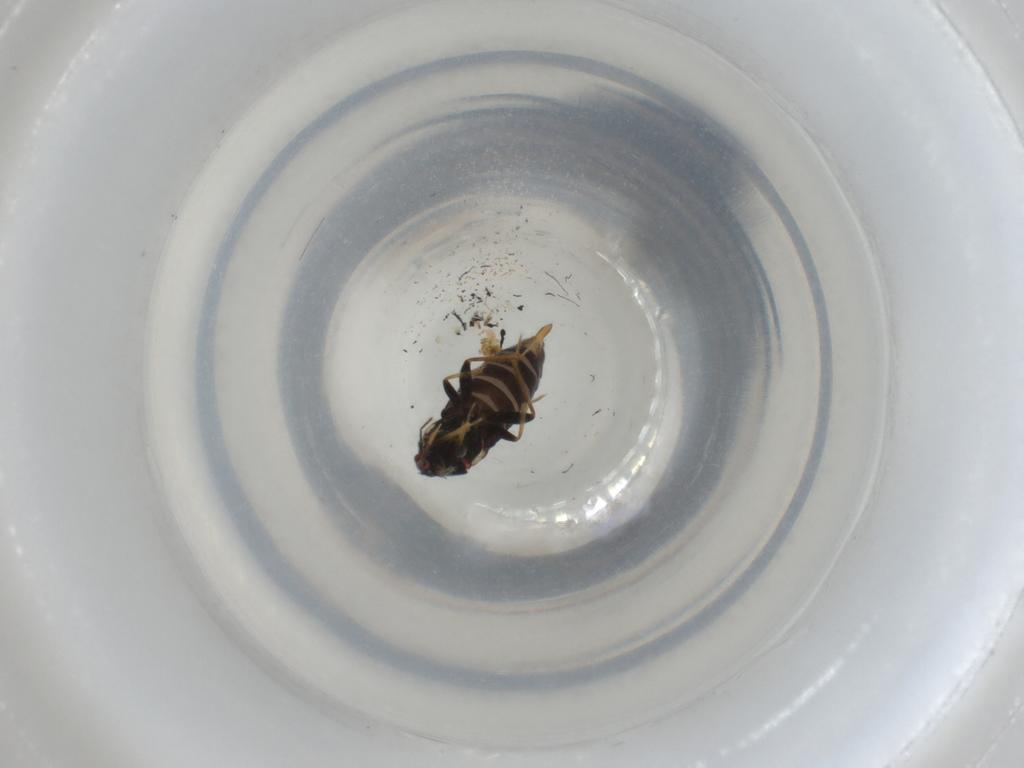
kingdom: Animalia
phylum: Arthropoda
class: Insecta
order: Hemiptera
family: Anthocoridae
